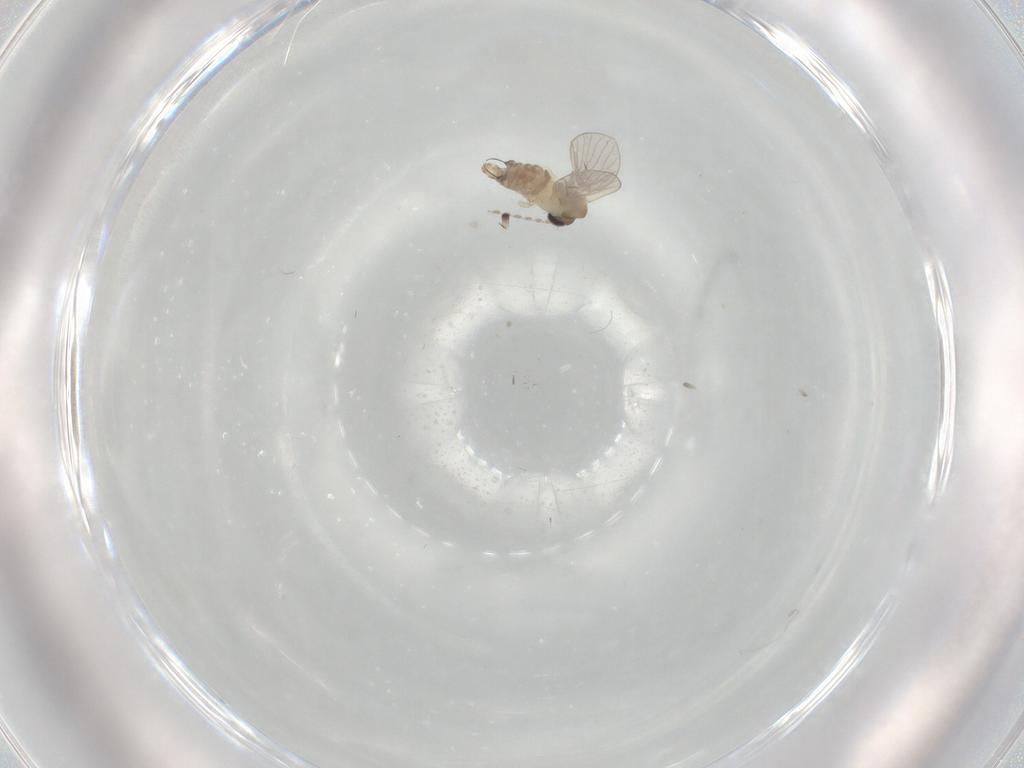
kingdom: Animalia
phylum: Arthropoda
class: Insecta
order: Diptera
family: Psychodidae
